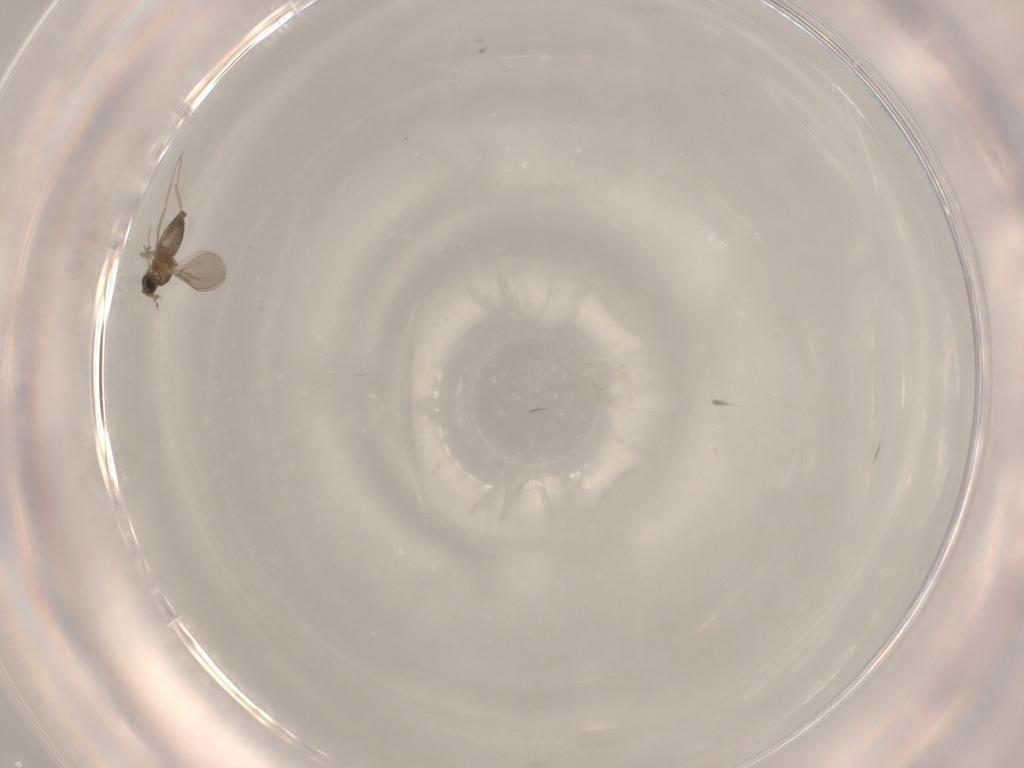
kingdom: Animalia
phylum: Arthropoda
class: Insecta
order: Diptera
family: Cecidomyiidae
